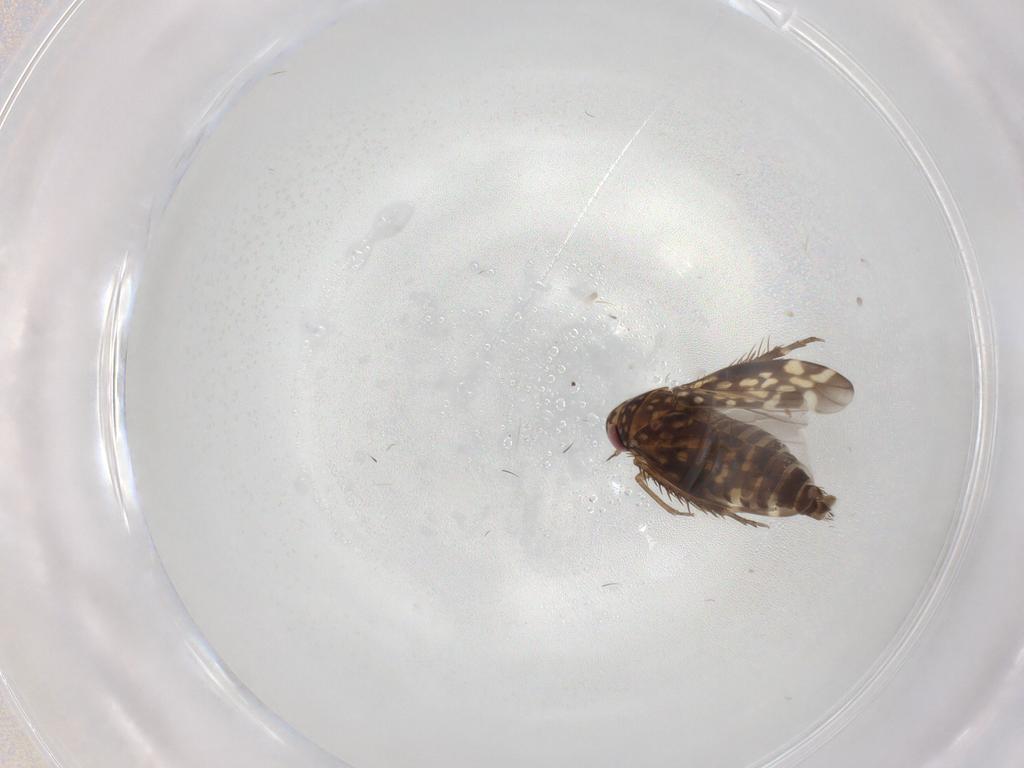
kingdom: Animalia
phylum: Arthropoda
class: Insecta
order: Hemiptera
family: Cicadellidae
